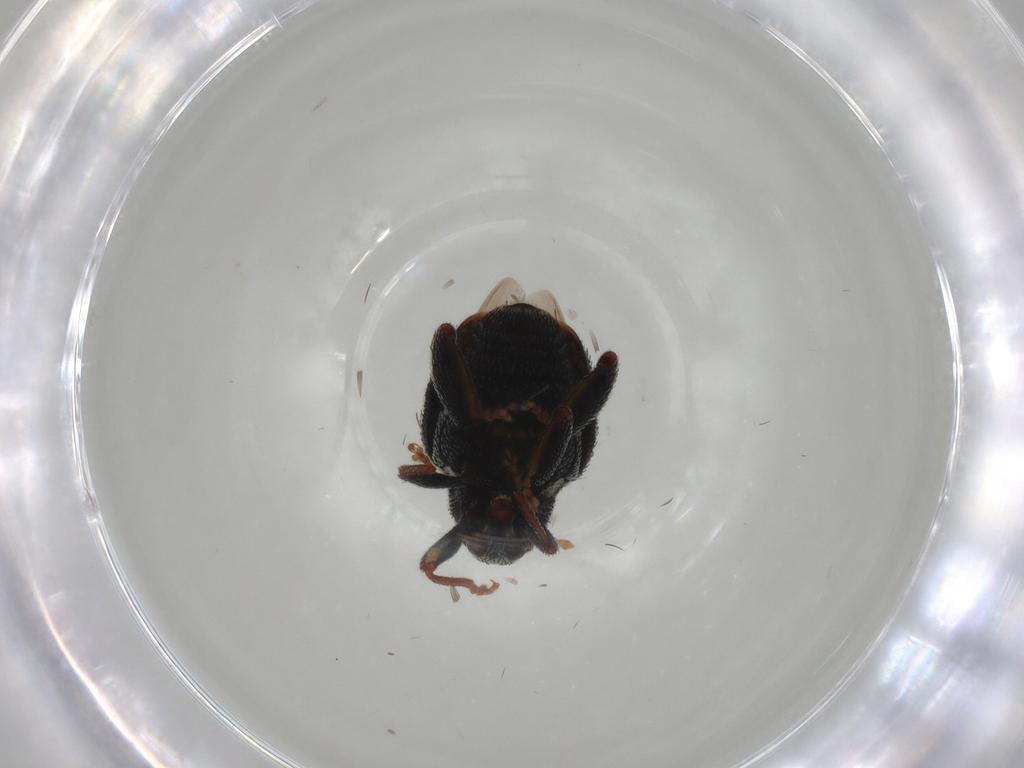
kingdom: Animalia
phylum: Arthropoda
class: Insecta
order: Coleoptera
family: Curculionidae
